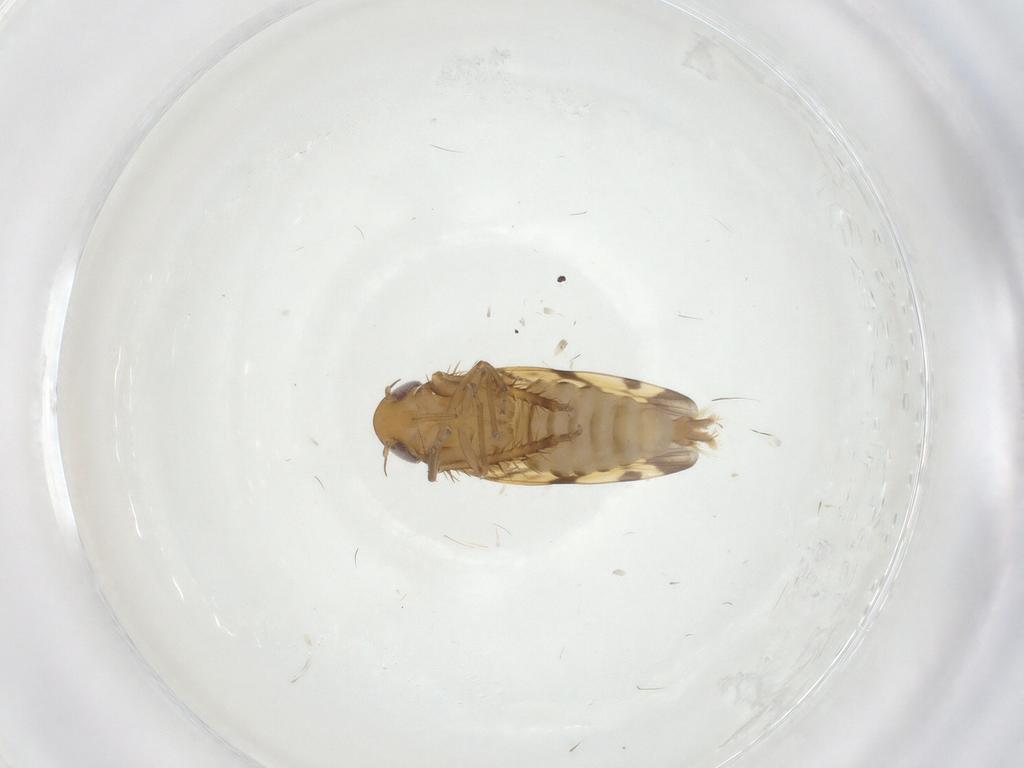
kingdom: Animalia
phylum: Arthropoda
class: Insecta
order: Hemiptera
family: Cicadellidae
